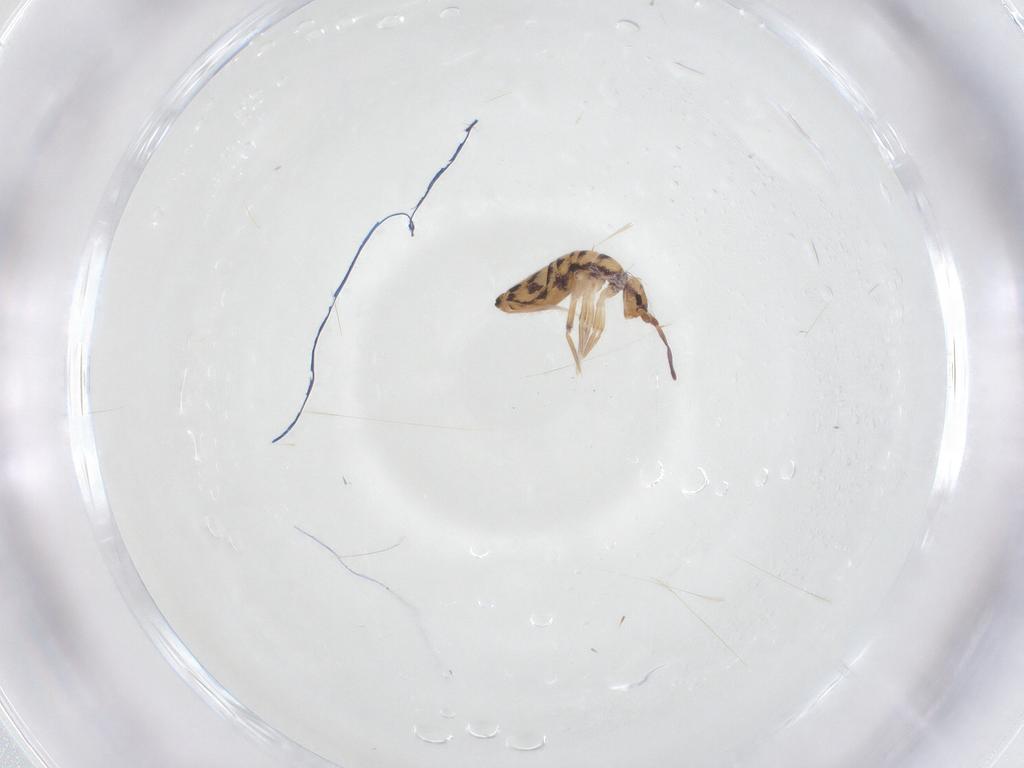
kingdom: Animalia
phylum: Arthropoda
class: Collembola
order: Entomobryomorpha
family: Entomobryidae
